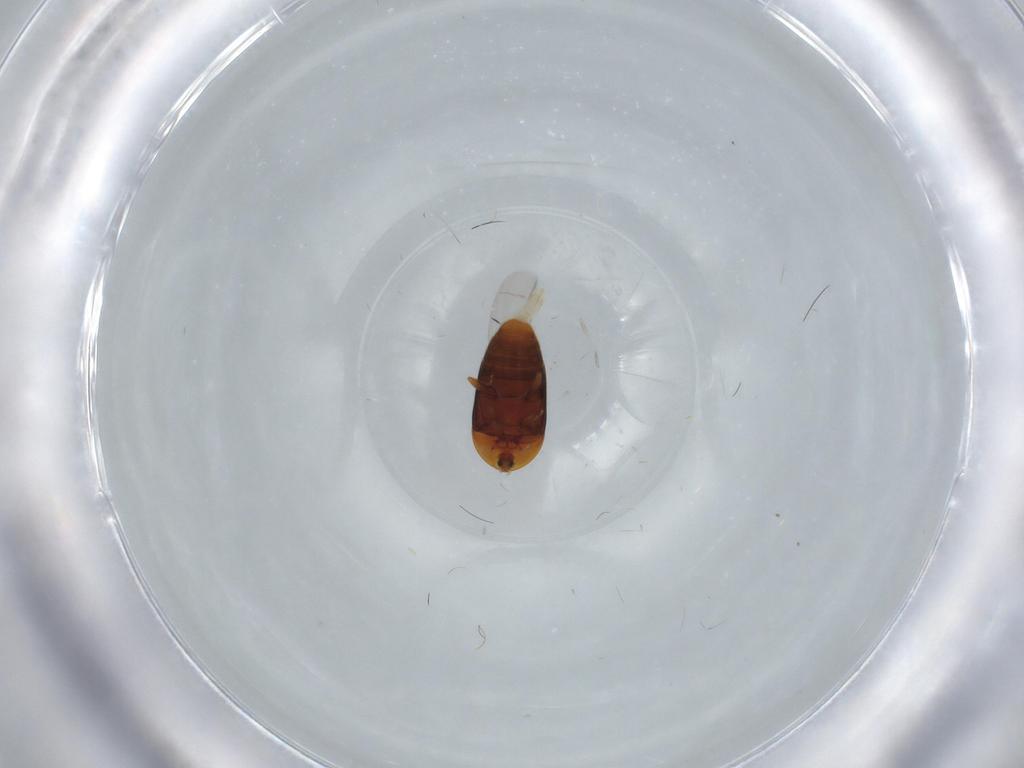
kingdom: Animalia
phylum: Arthropoda
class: Insecta
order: Coleoptera
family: Corylophidae
